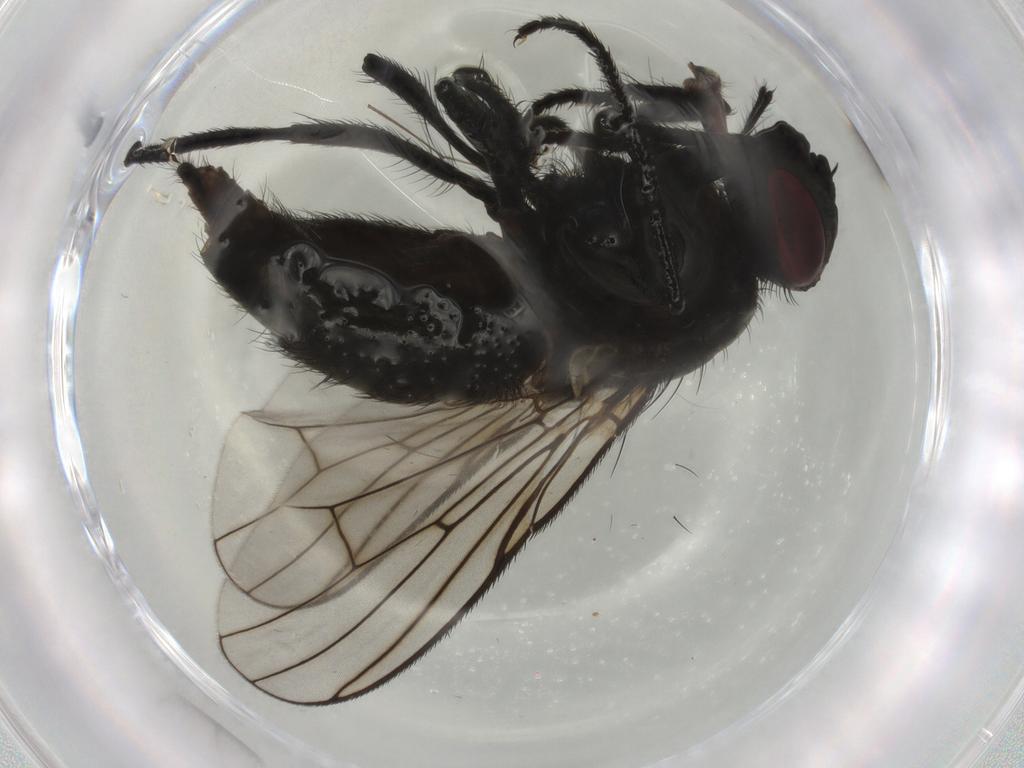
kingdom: Animalia
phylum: Arthropoda
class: Insecta
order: Diptera
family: Muscidae
